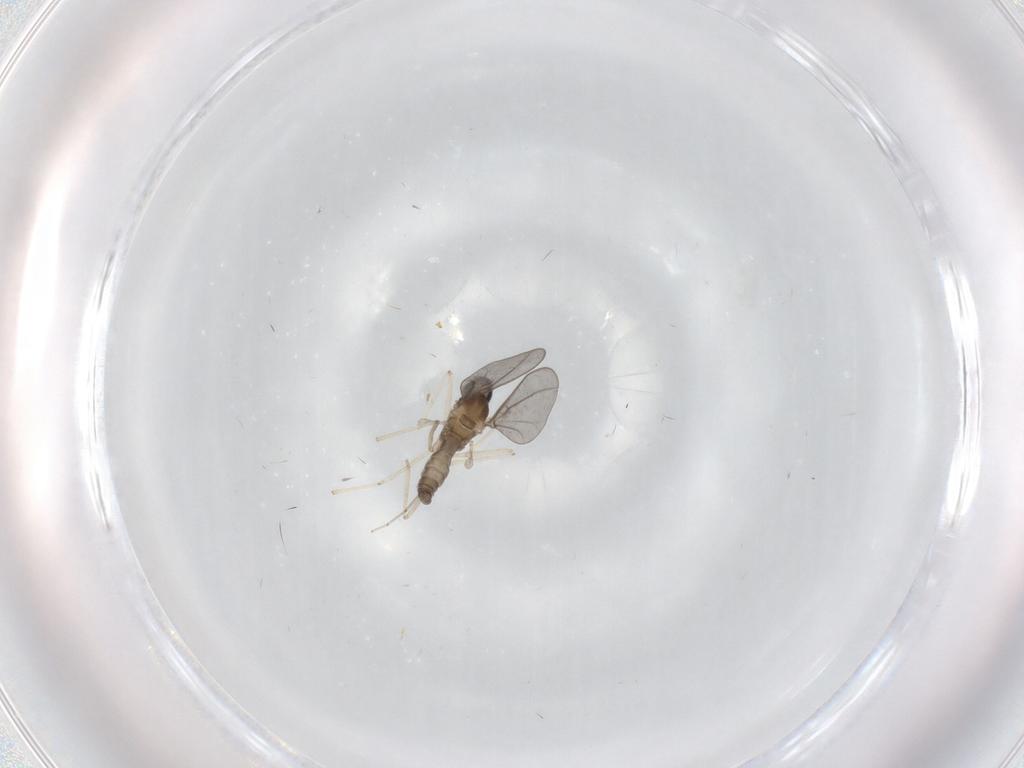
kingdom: Animalia
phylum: Arthropoda
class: Insecta
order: Diptera
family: Cecidomyiidae
